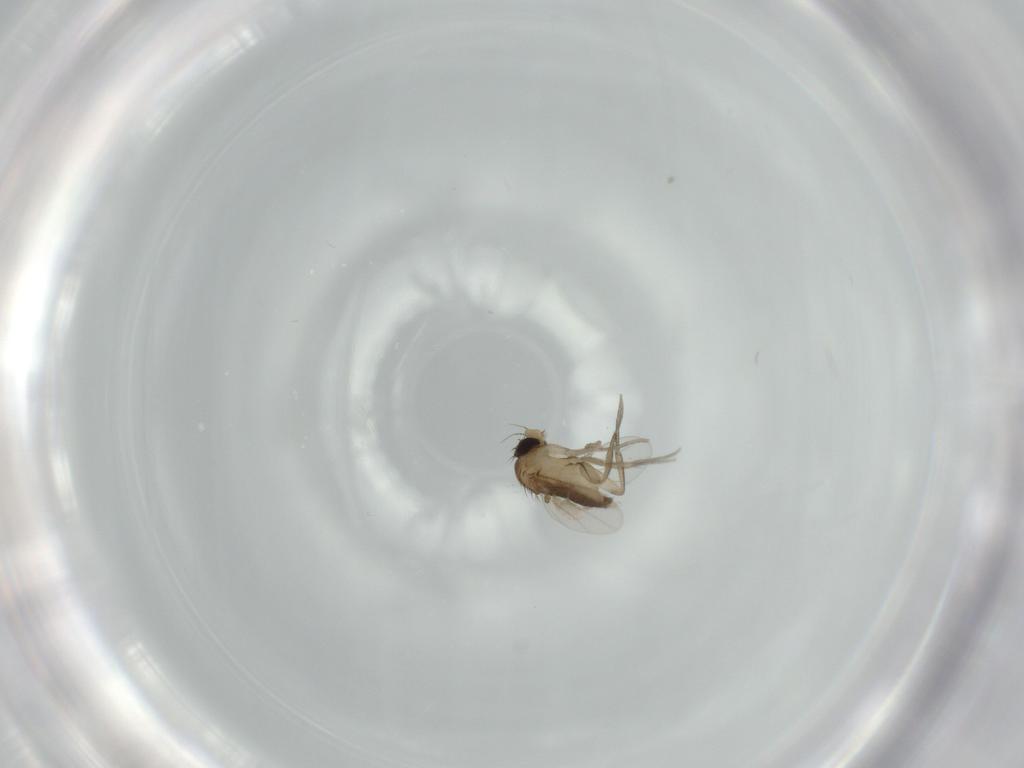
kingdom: Animalia
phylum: Arthropoda
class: Insecta
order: Diptera
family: Phoridae
